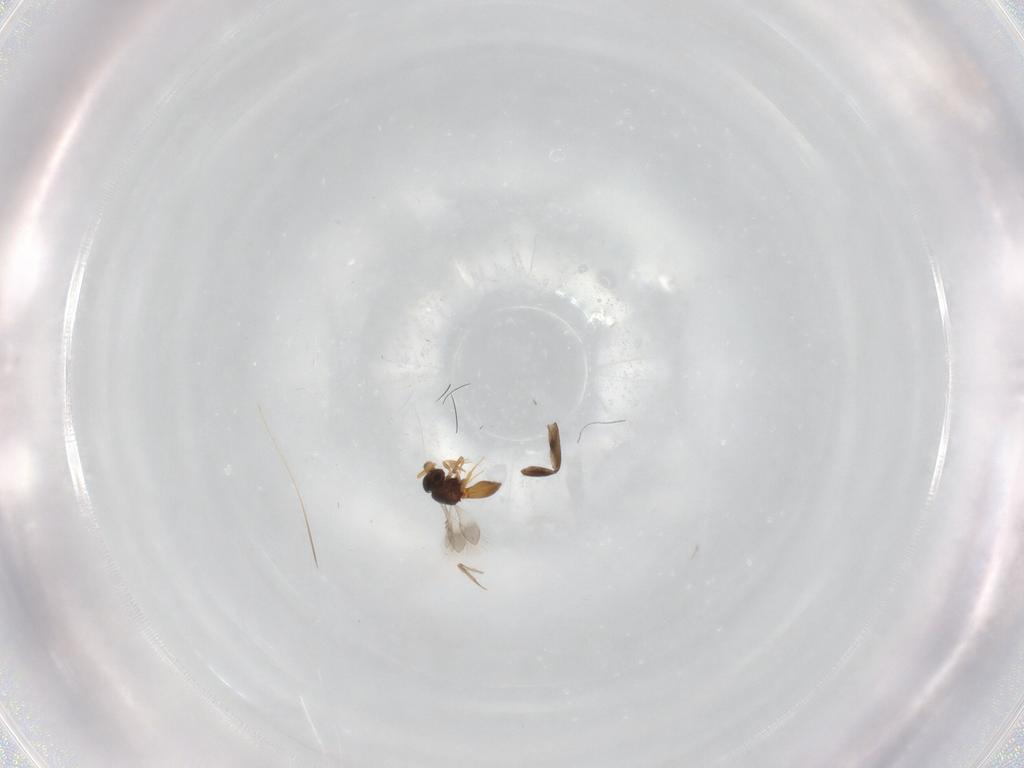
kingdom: Animalia
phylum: Arthropoda
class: Insecta
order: Hymenoptera
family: Scelionidae
